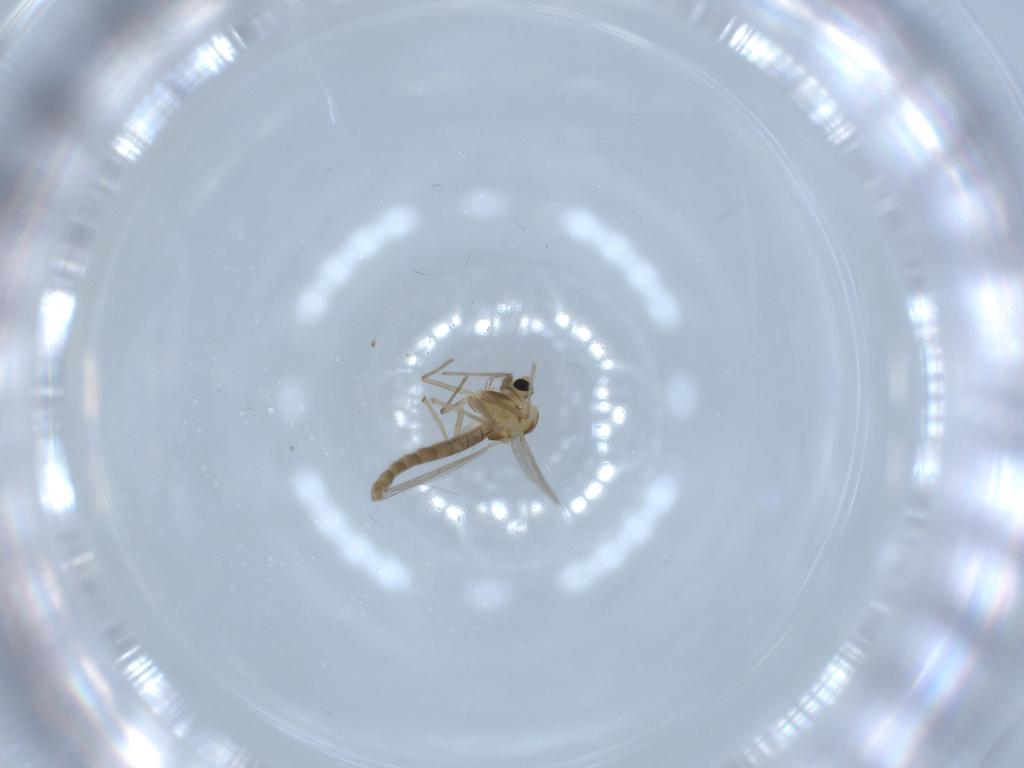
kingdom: Animalia
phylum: Arthropoda
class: Insecta
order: Diptera
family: Chironomidae
